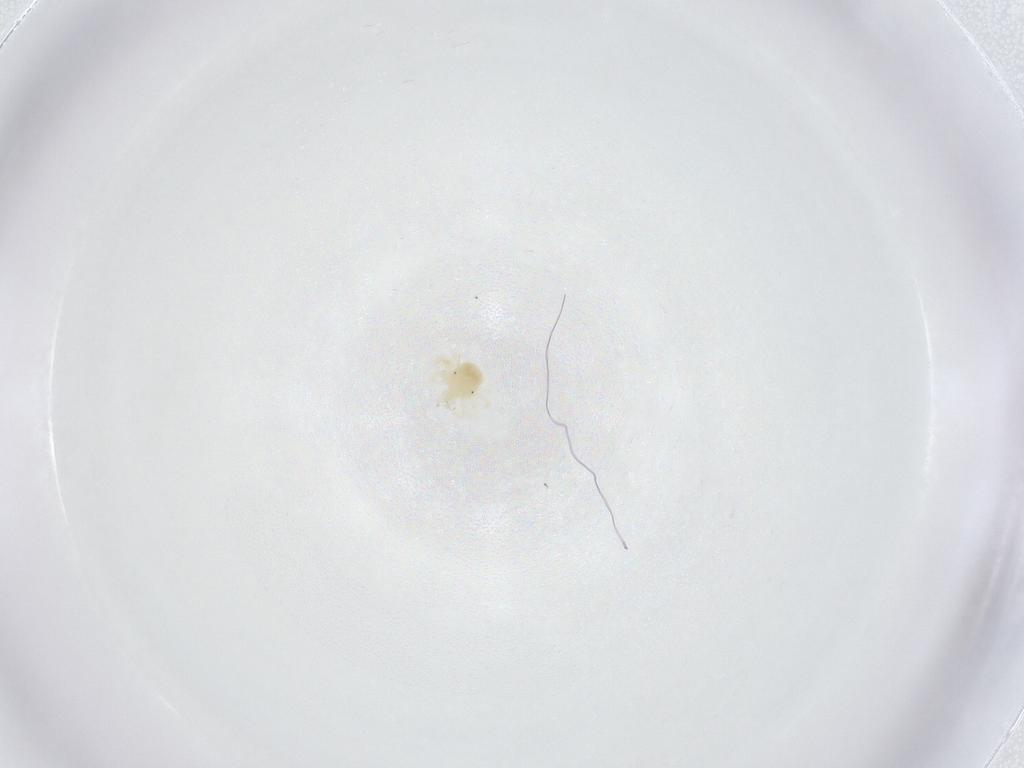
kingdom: Animalia
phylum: Arthropoda
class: Arachnida
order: Trombidiformes
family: Anystidae
